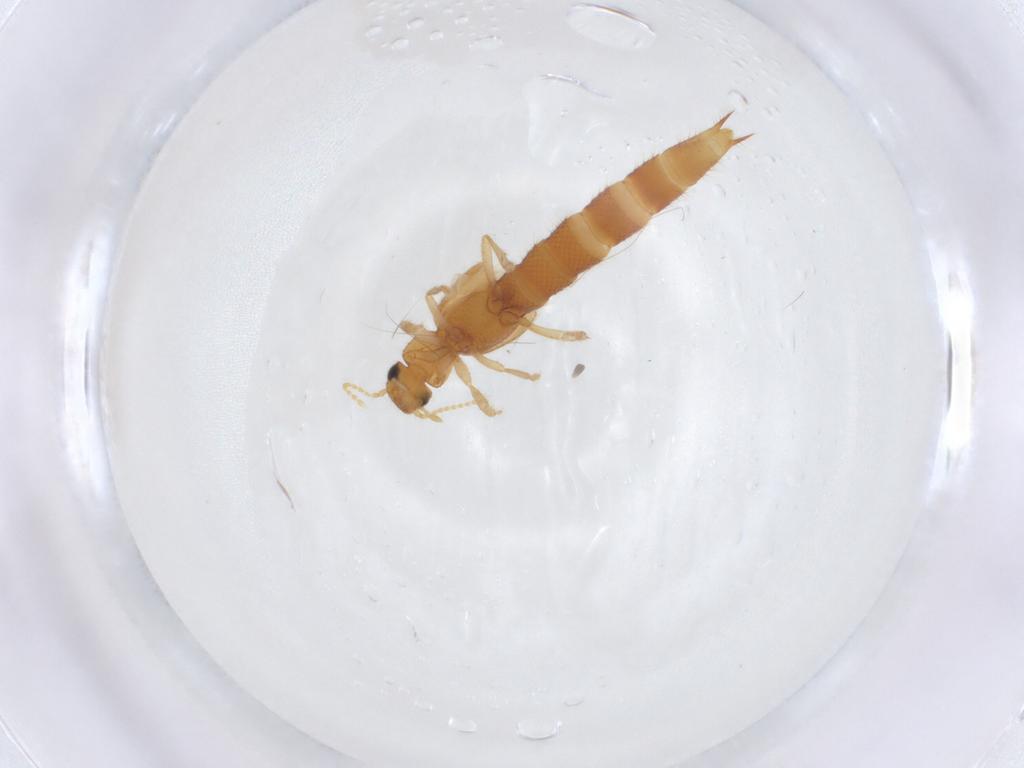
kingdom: Animalia
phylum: Arthropoda
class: Insecta
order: Coleoptera
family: Staphylinidae
